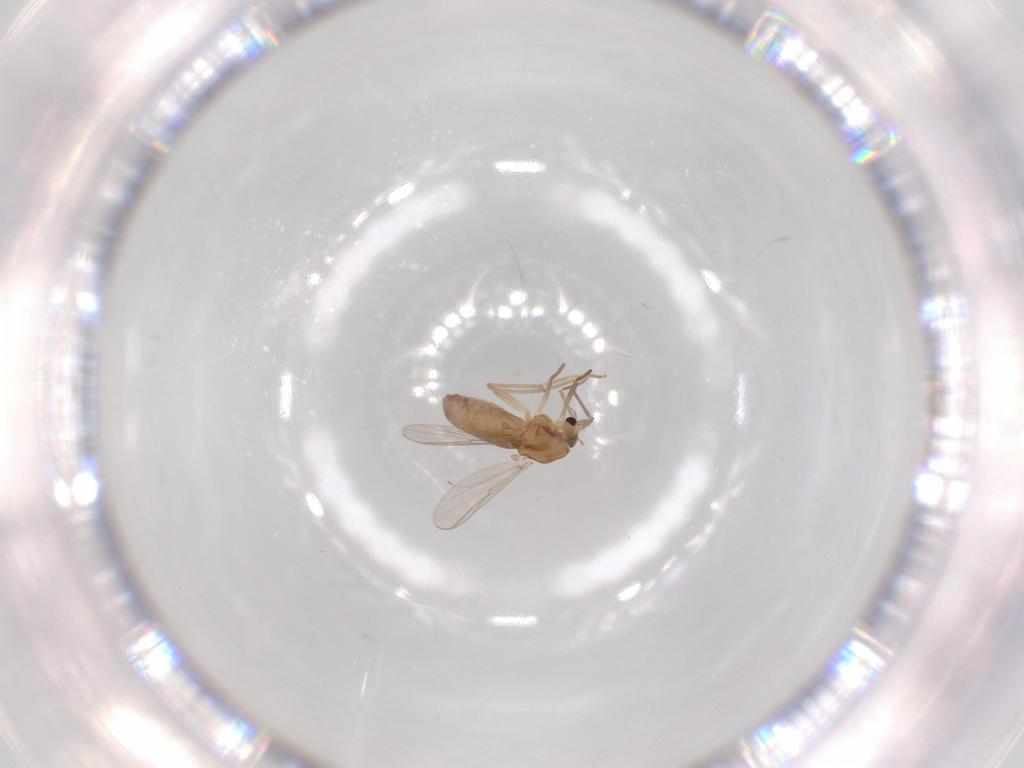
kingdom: Animalia
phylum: Arthropoda
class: Insecta
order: Diptera
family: Chironomidae
